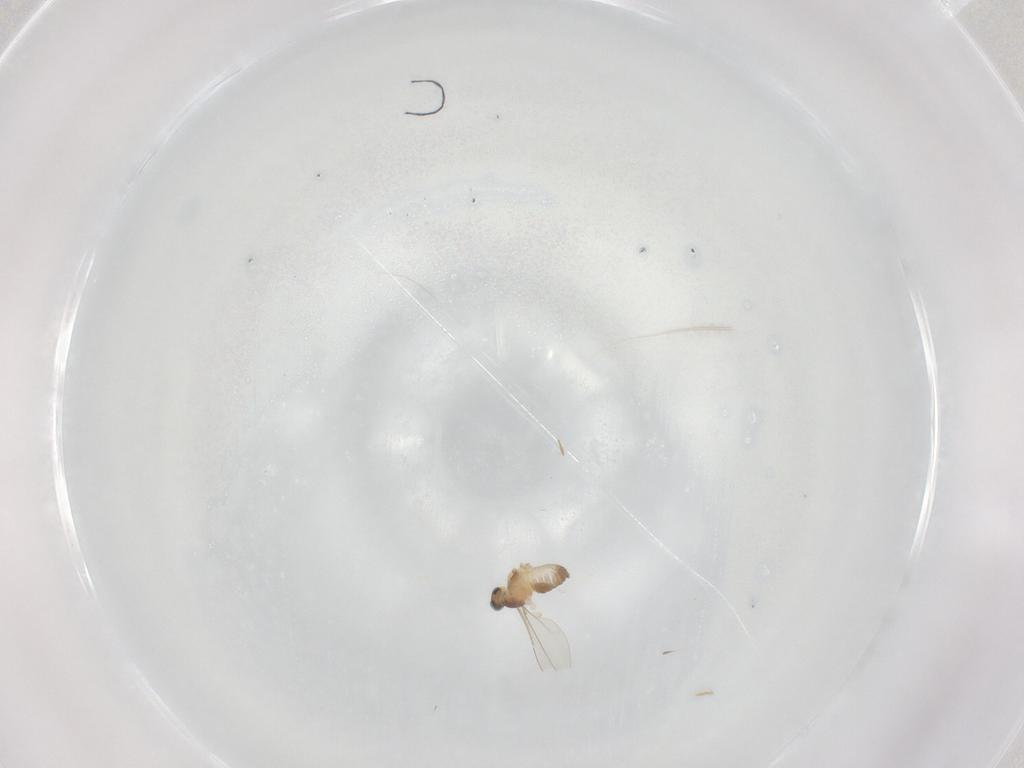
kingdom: Animalia
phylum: Arthropoda
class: Insecta
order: Diptera
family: Cecidomyiidae
